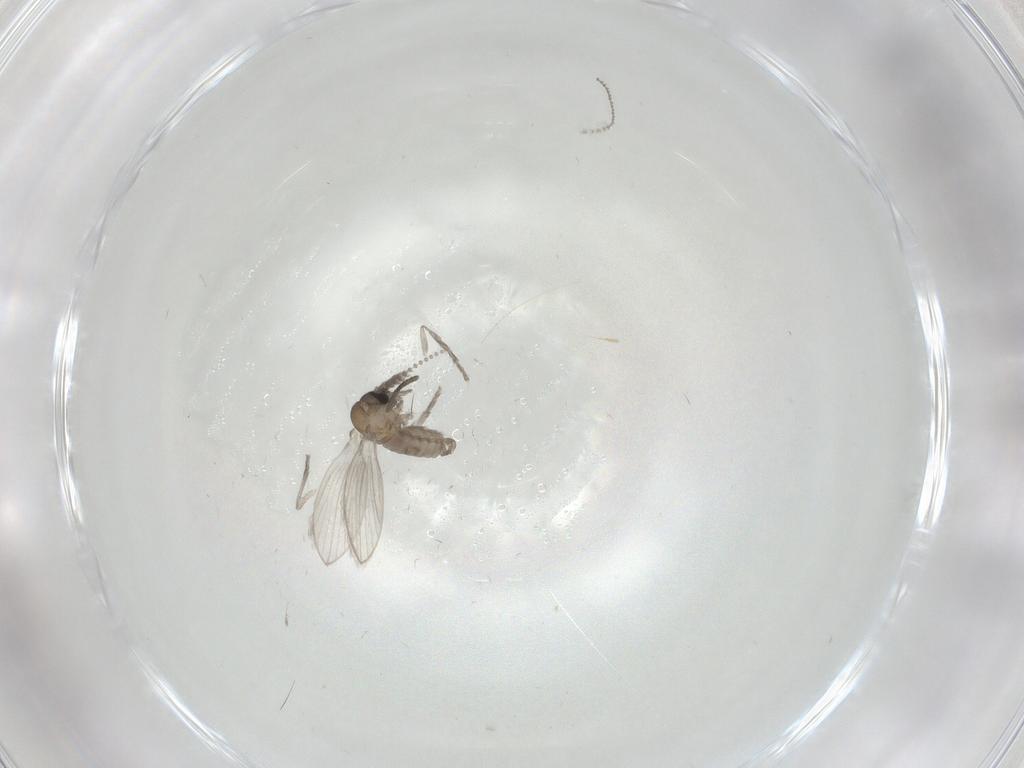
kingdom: Animalia
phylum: Arthropoda
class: Insecta
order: Diptera
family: Psychodidae
